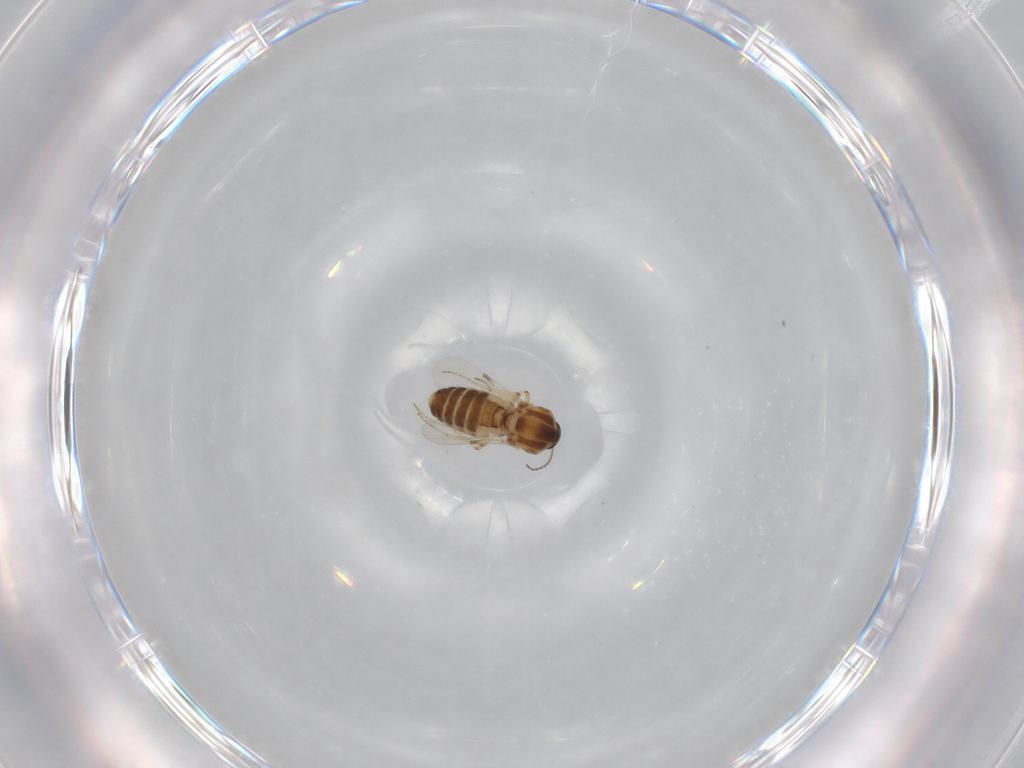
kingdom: Animalia
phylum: Arthropoda
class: Insecta
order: Diptera
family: Ceratopogonidae
